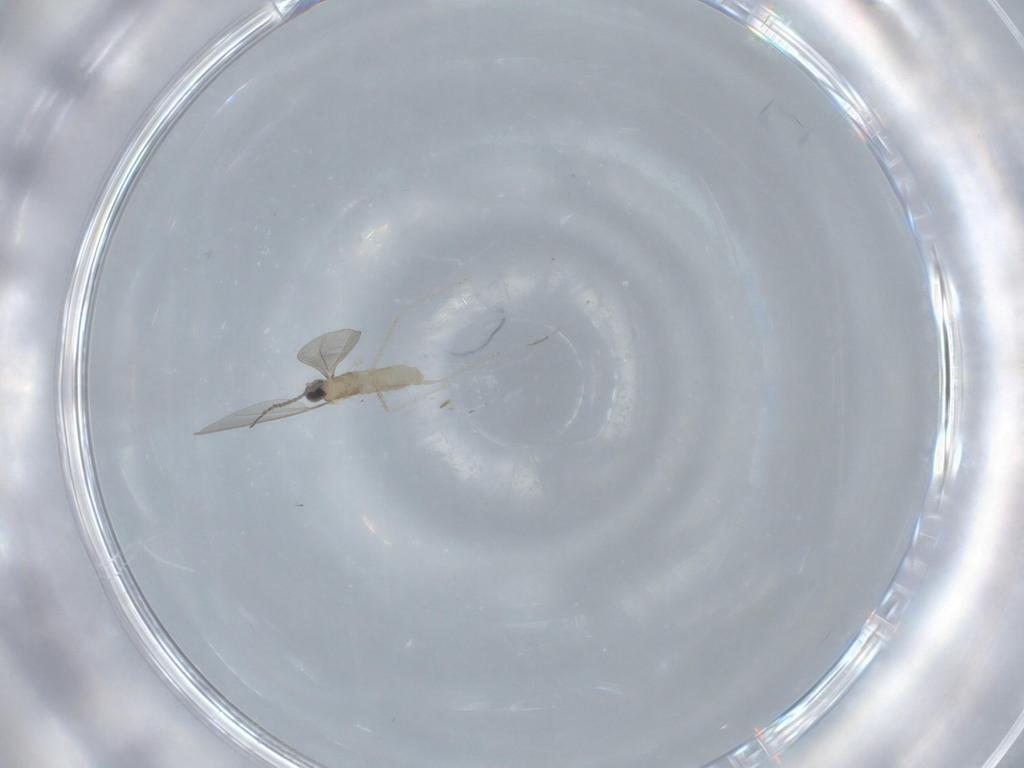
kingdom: Animalia
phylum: Arthropoda
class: Insecta
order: Diptera
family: Cecidomyiidae
